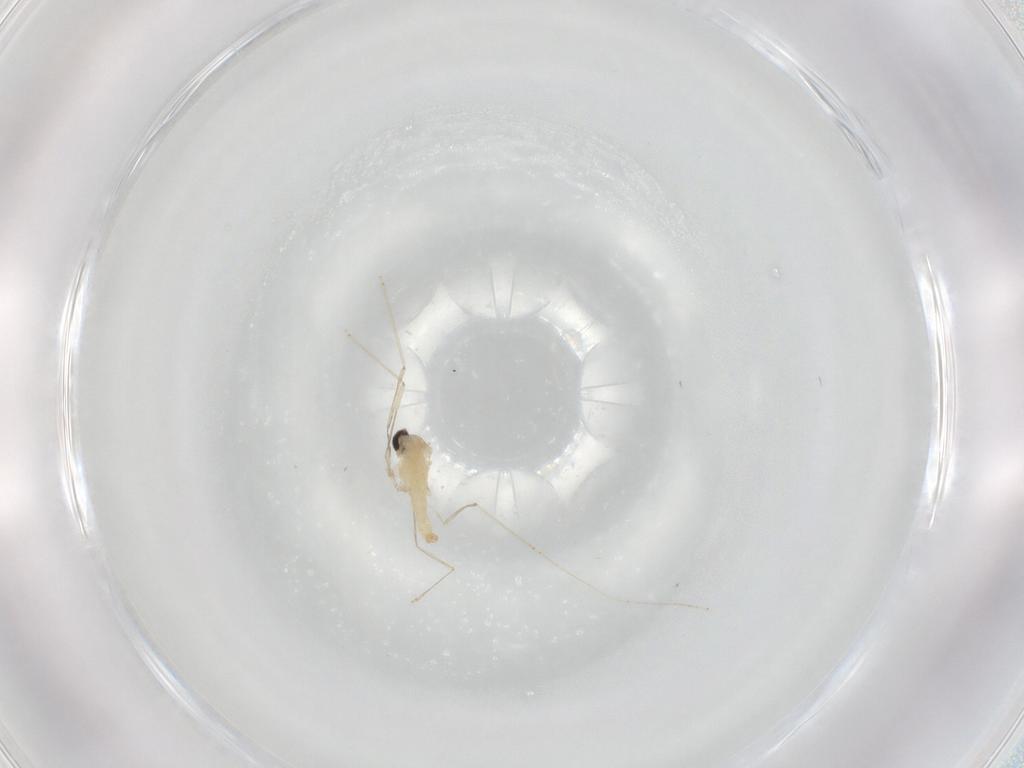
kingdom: Animalia
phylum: Arthropoda
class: Insecta
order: Diptera
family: Cecidomyiidae
